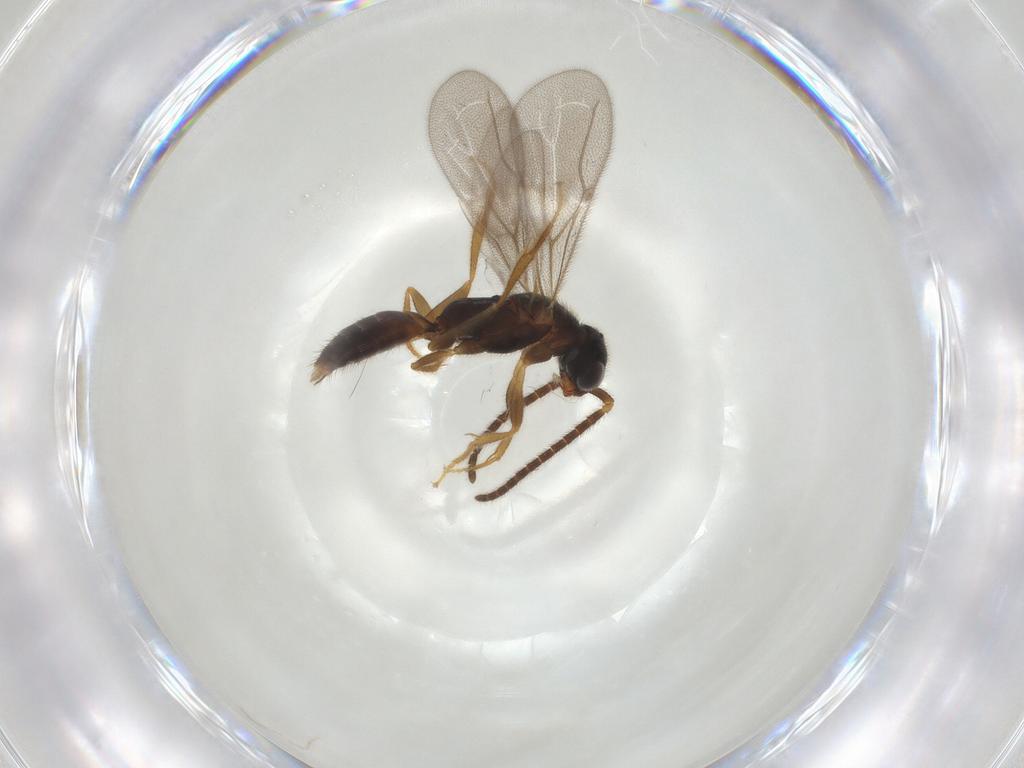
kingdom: Animalia
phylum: Arthropoda
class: Insecta
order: Hymenoptera
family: Bethylidae
